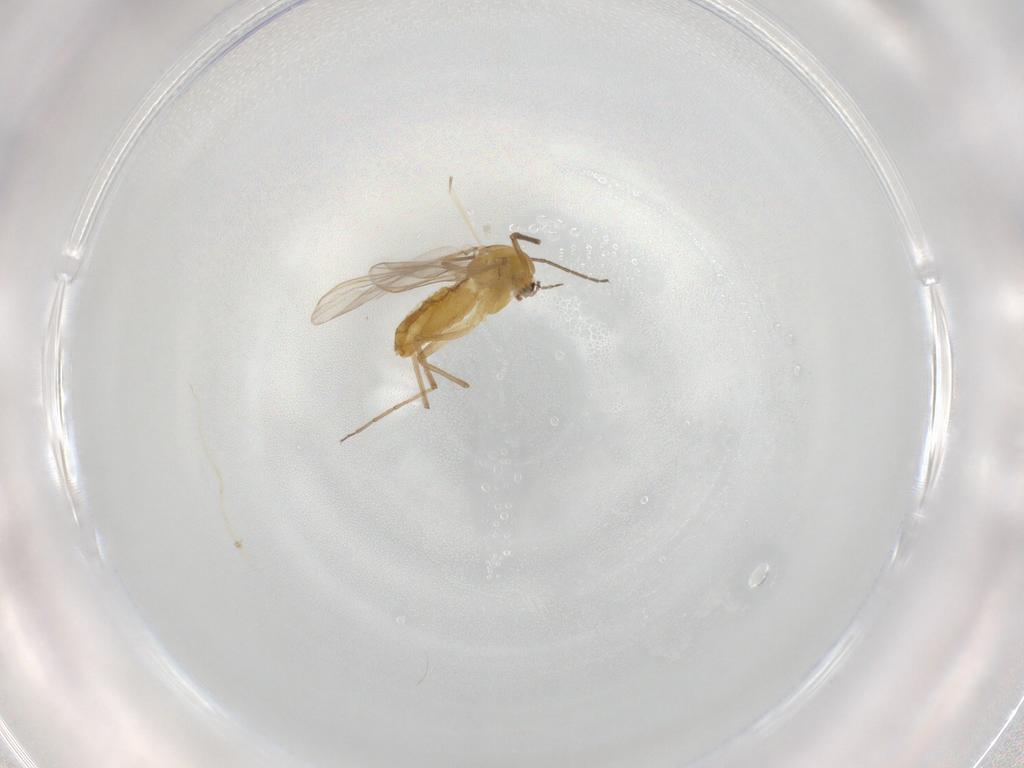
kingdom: Animalia
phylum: Arthropoda
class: Insecta
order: Diptera
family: Chironomidae
